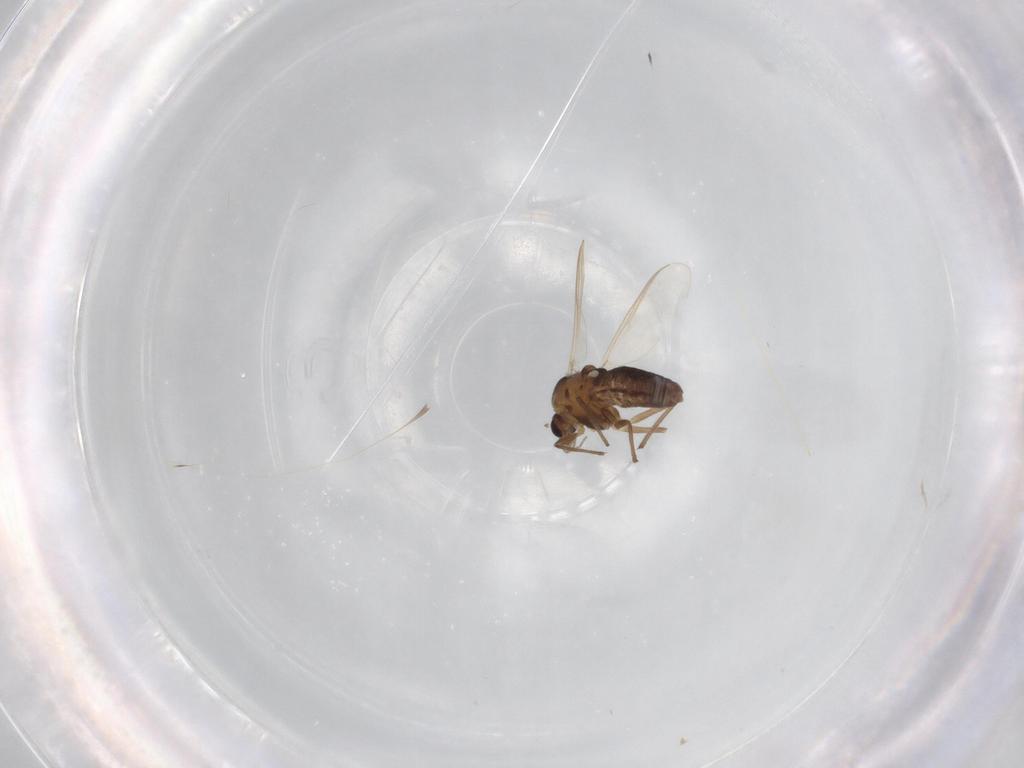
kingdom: Animalia
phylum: Arthropoda
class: Insecta
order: Diptera
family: Chironomidae
